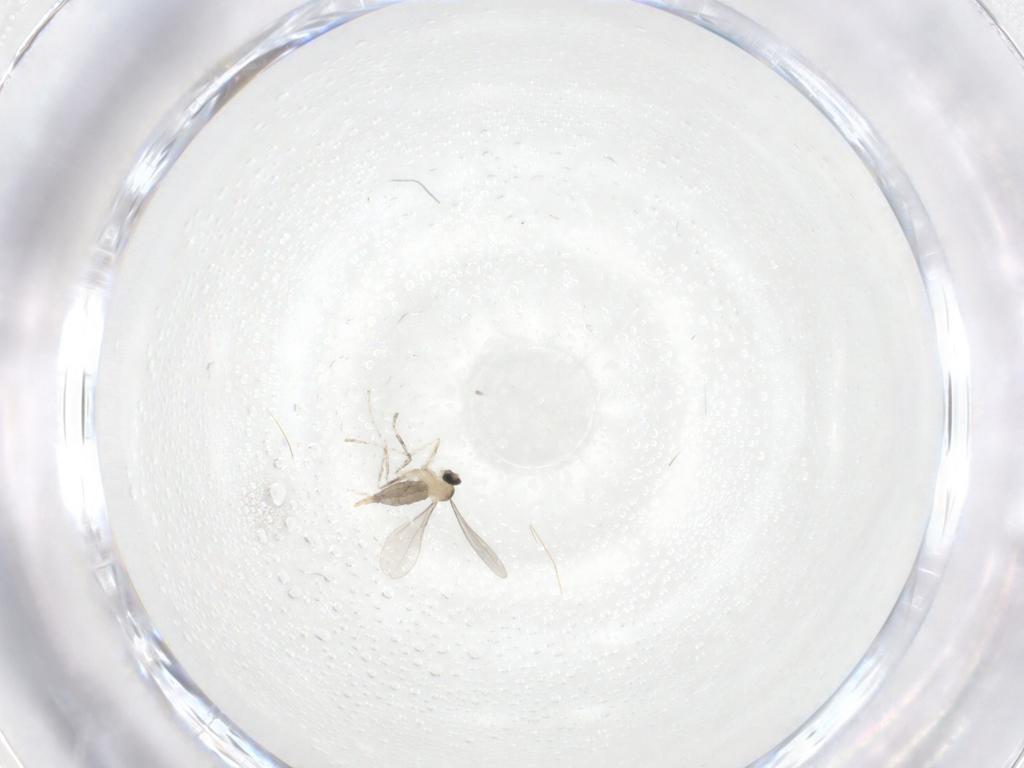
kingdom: Animalia
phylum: Arthropoda
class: Insecta
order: Diptera
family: Cecidomyiidae
